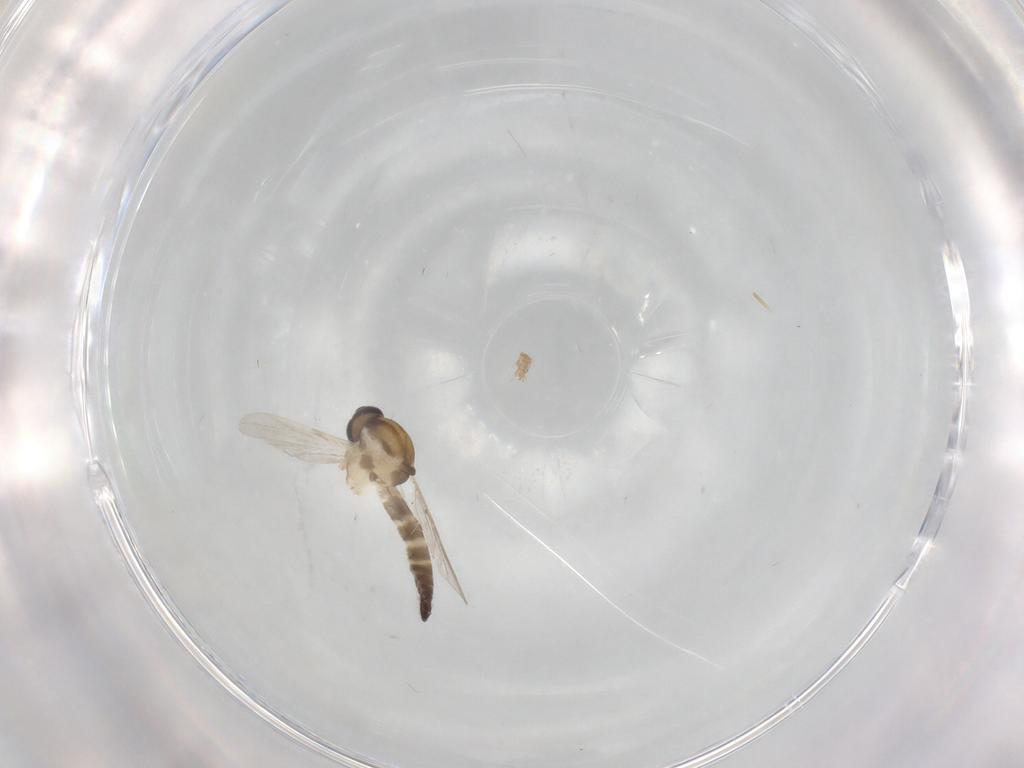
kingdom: Animalia
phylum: Arthropoda
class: Insecta
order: Diptera
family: Ceratopogonidae
